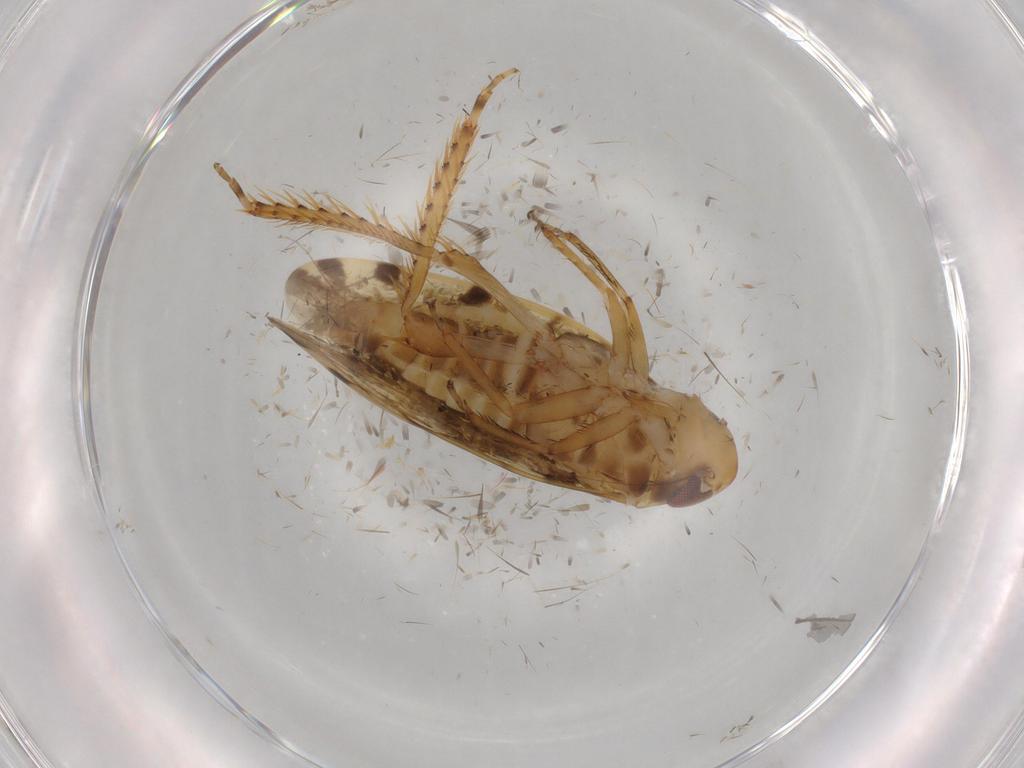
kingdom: Animalia
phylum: Arthropoda
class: Insecta
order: Hemiptera
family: Cicadellidae
